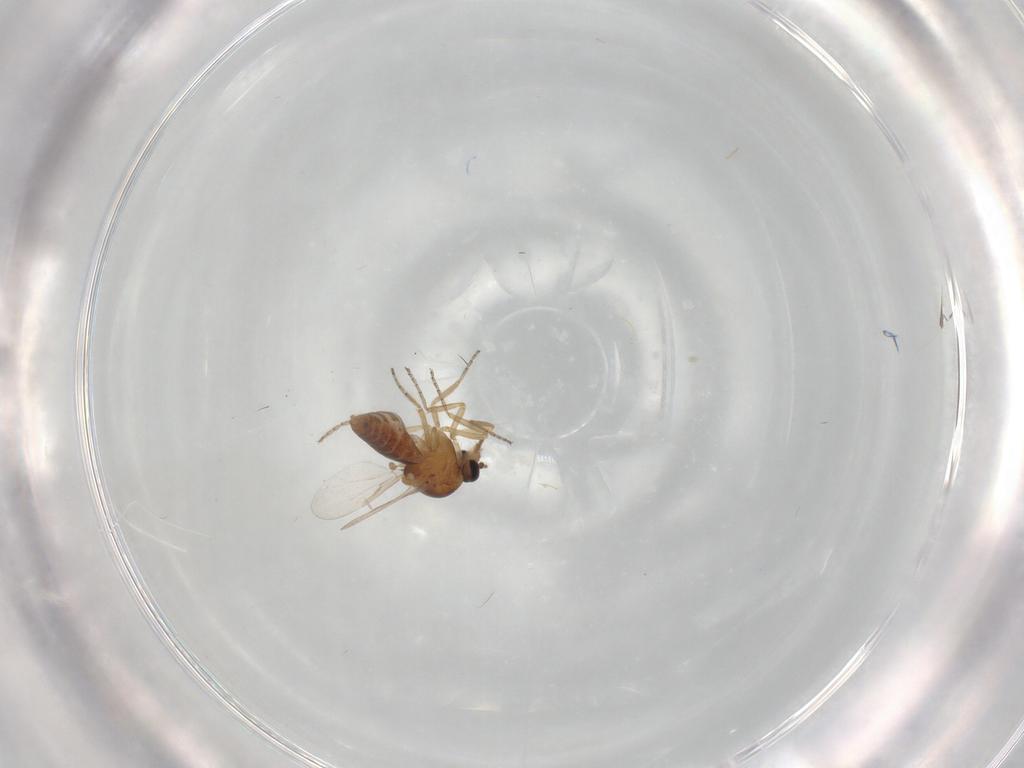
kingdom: Animalia
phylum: Arthropoda
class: Insecta
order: Diptera
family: Ceratopogonidae
